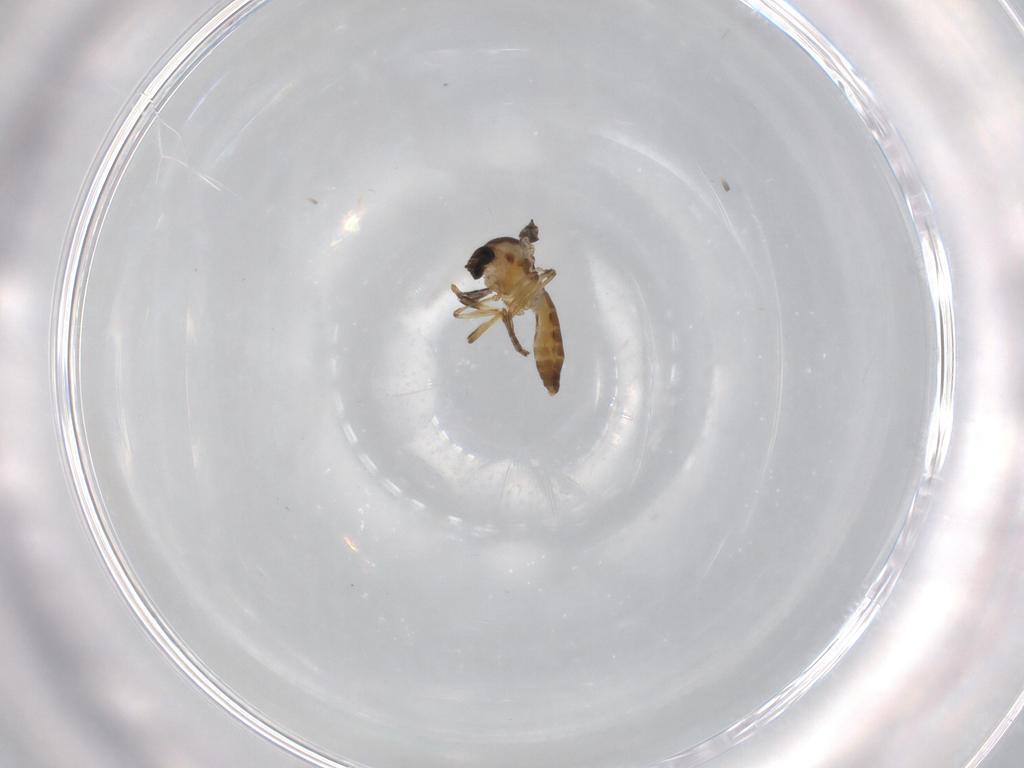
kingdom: Animalia
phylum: Arthropoda
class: Insecta
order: Diptera
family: Ceratopogonidae
